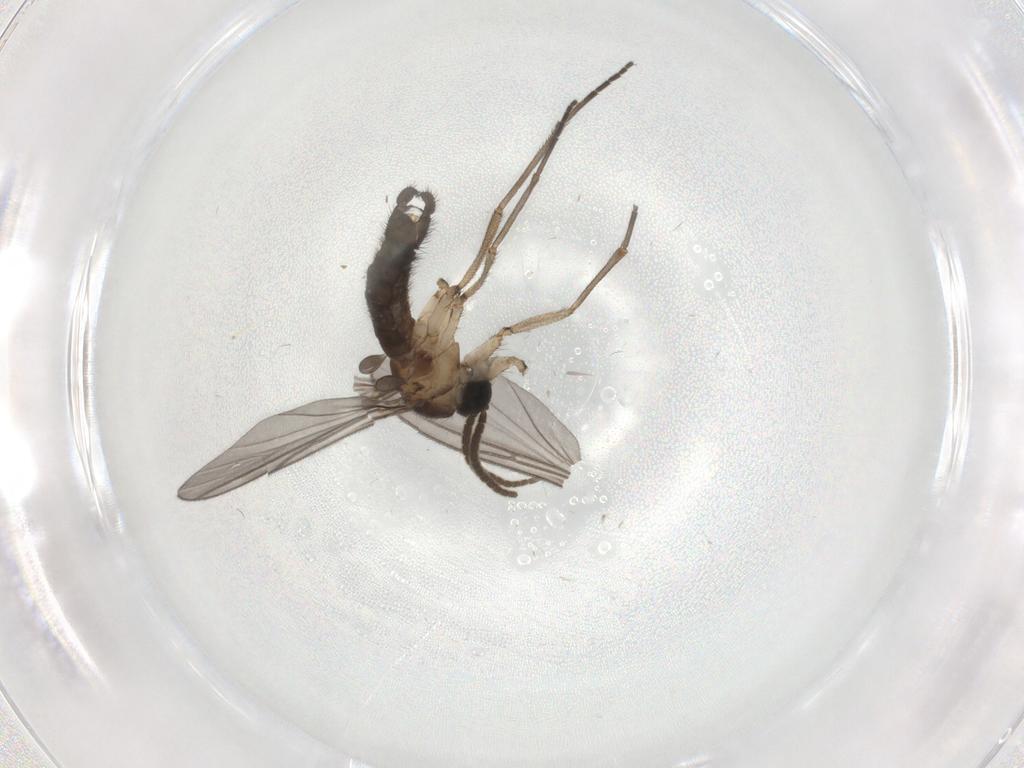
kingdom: Animalia
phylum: Arthropoda
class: Insecta
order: Diptera
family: Sciaridae
